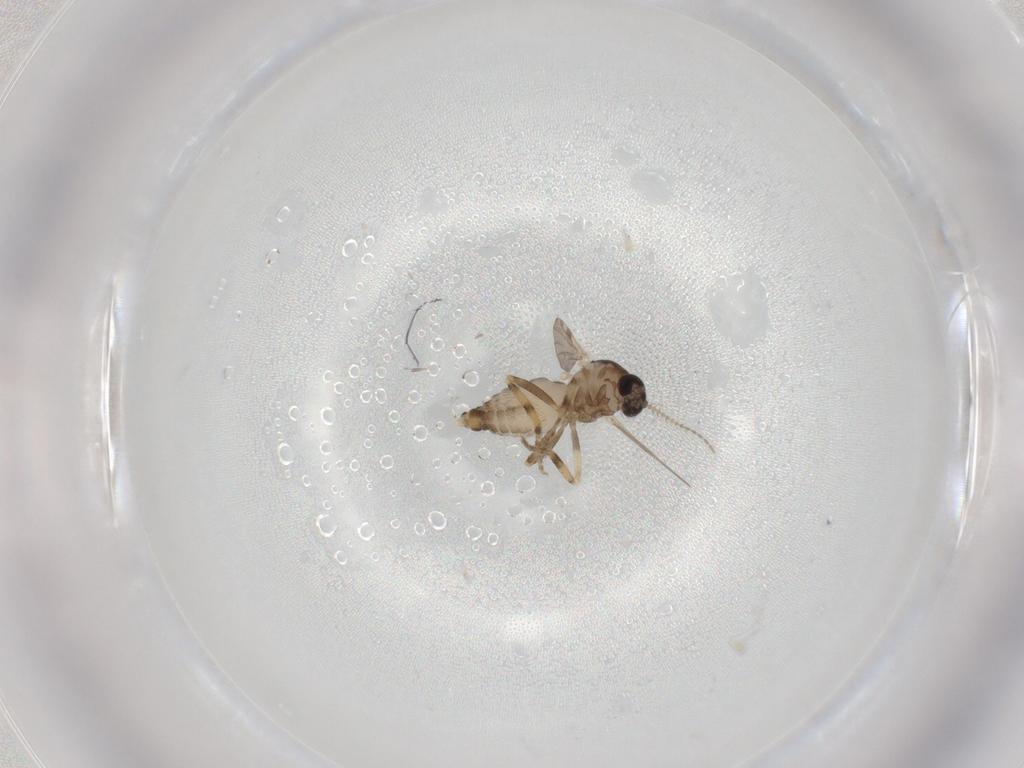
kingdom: Animalia
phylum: Arthropoda
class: Insecta
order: Diptera
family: Ceratopogonidae
